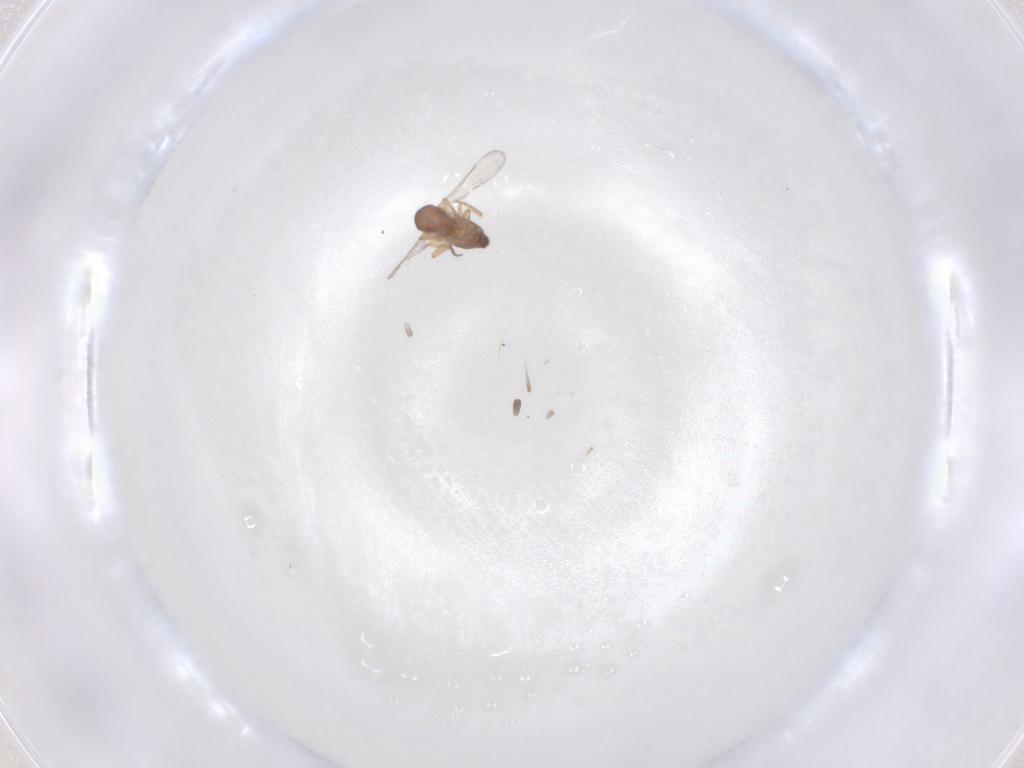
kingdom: Animalia
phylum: Arthropoda
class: Insecta
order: Diptera
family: Ceratopogonidae
